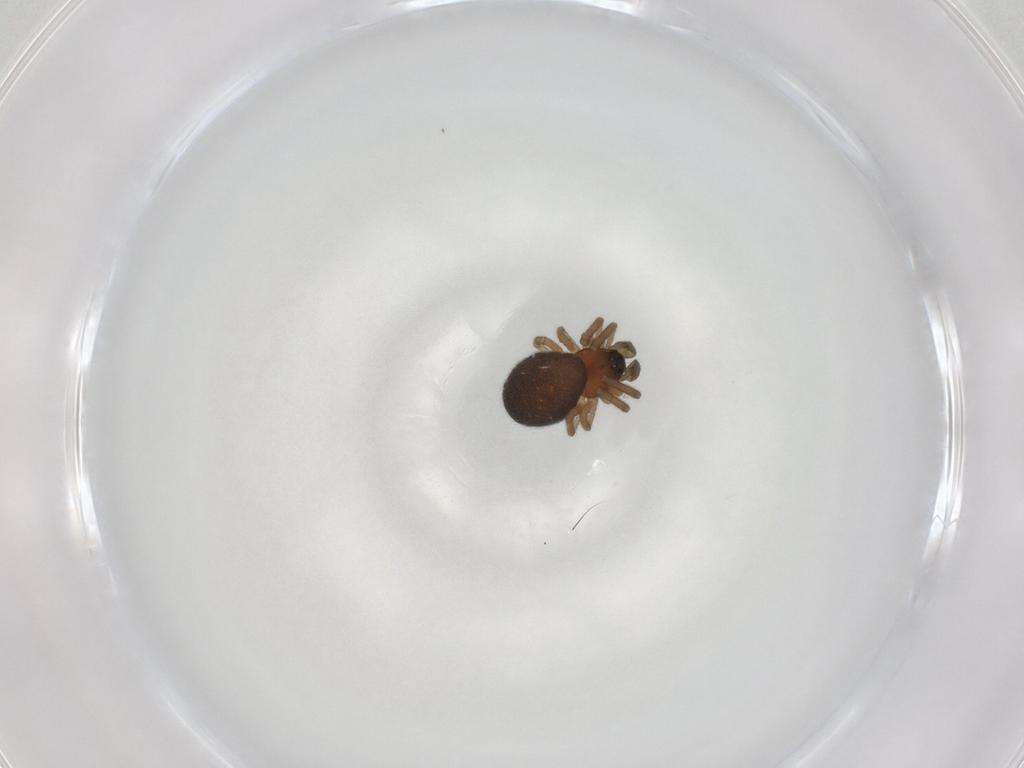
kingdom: Animalia
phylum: Arthropoda
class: Arachnida
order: Araneae
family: Linyphiidae
